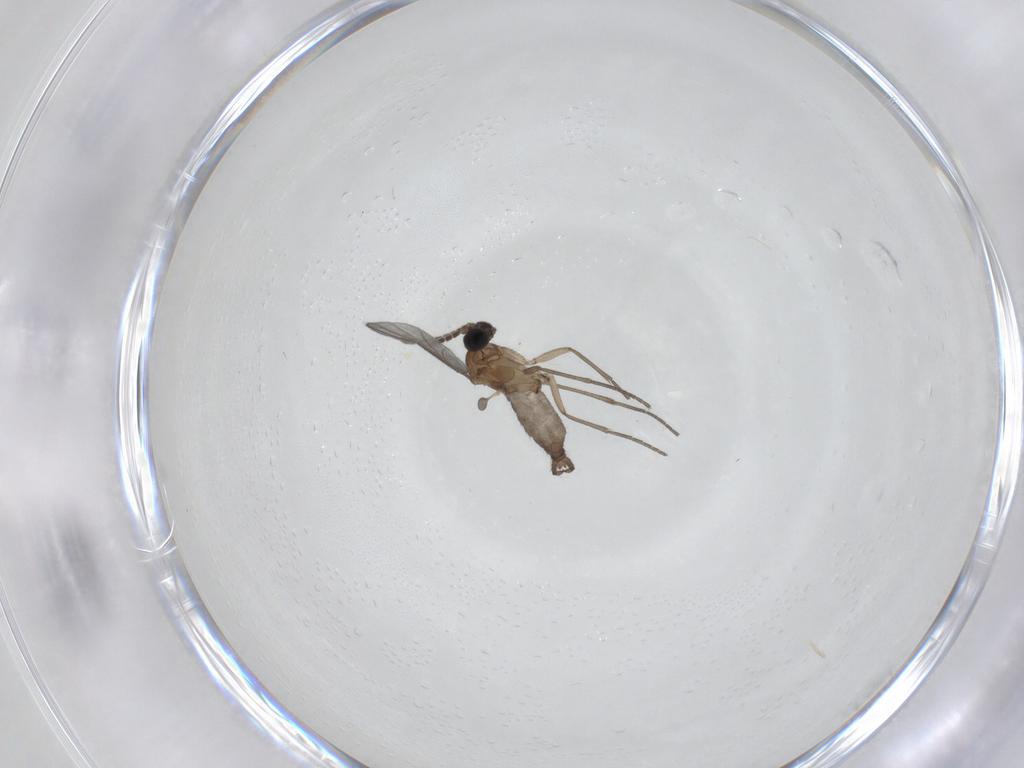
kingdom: Animalia
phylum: Arthropoda
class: Insecta
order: Diptera
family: Sciaridae
